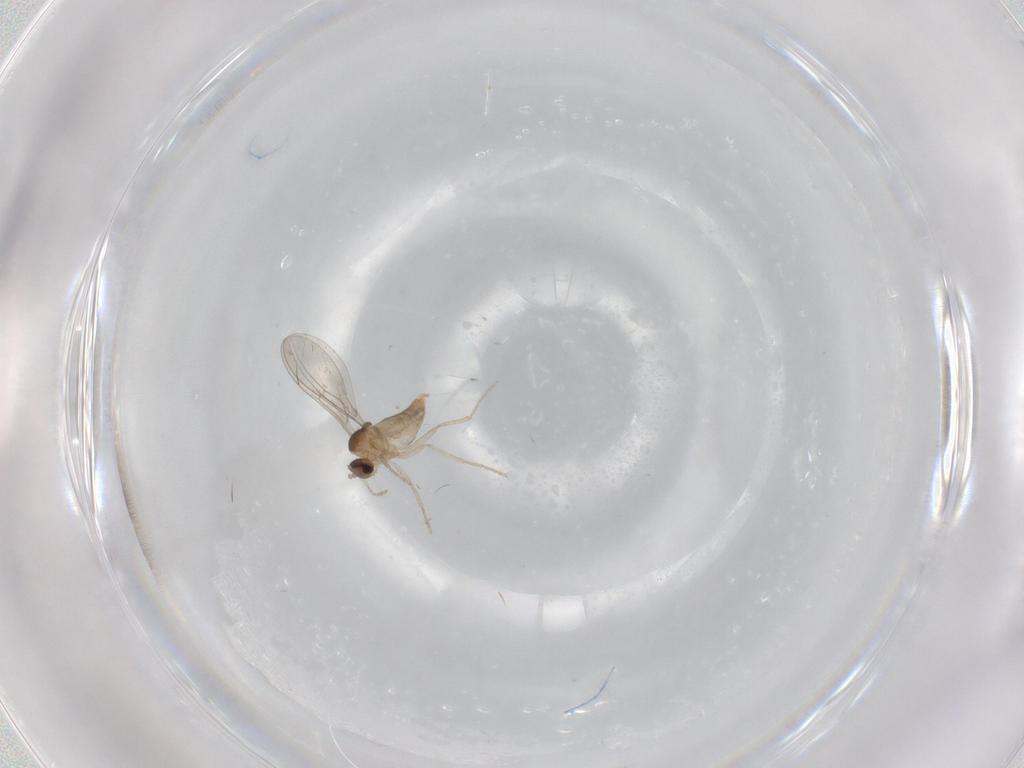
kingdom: Animalia
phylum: Arthropoda
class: Insecta
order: Diptera
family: Cecidomyiidae
